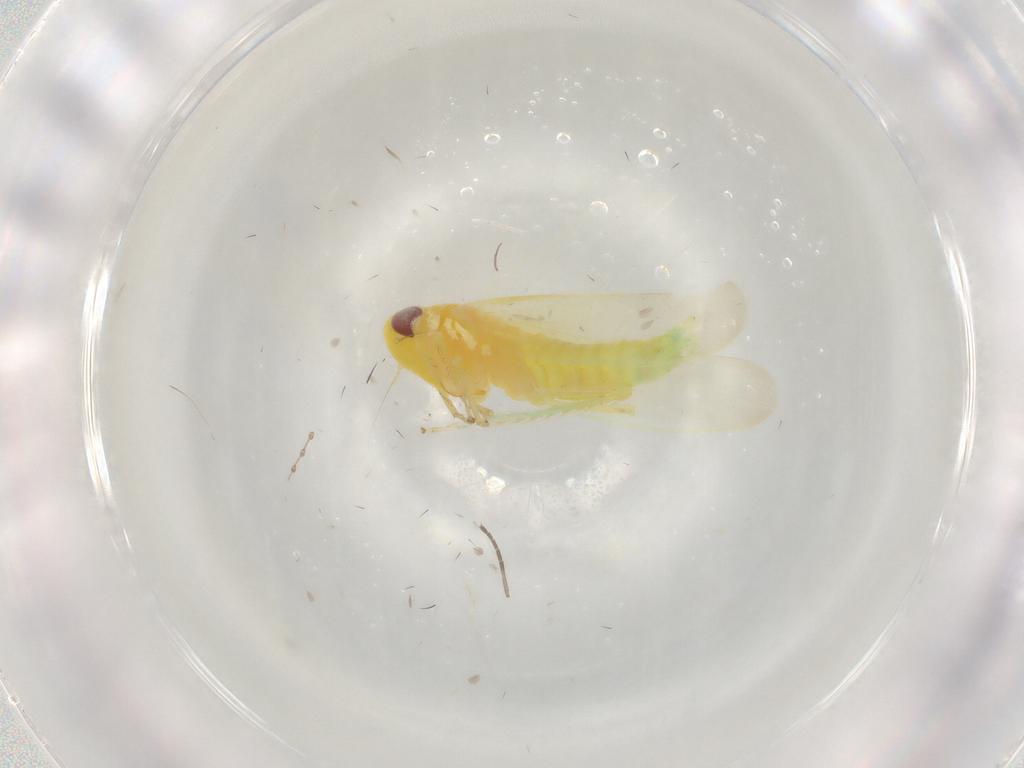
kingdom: Animalia
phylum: Arthropoda
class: Insecta
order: Hemiptera
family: Cicadellidae
